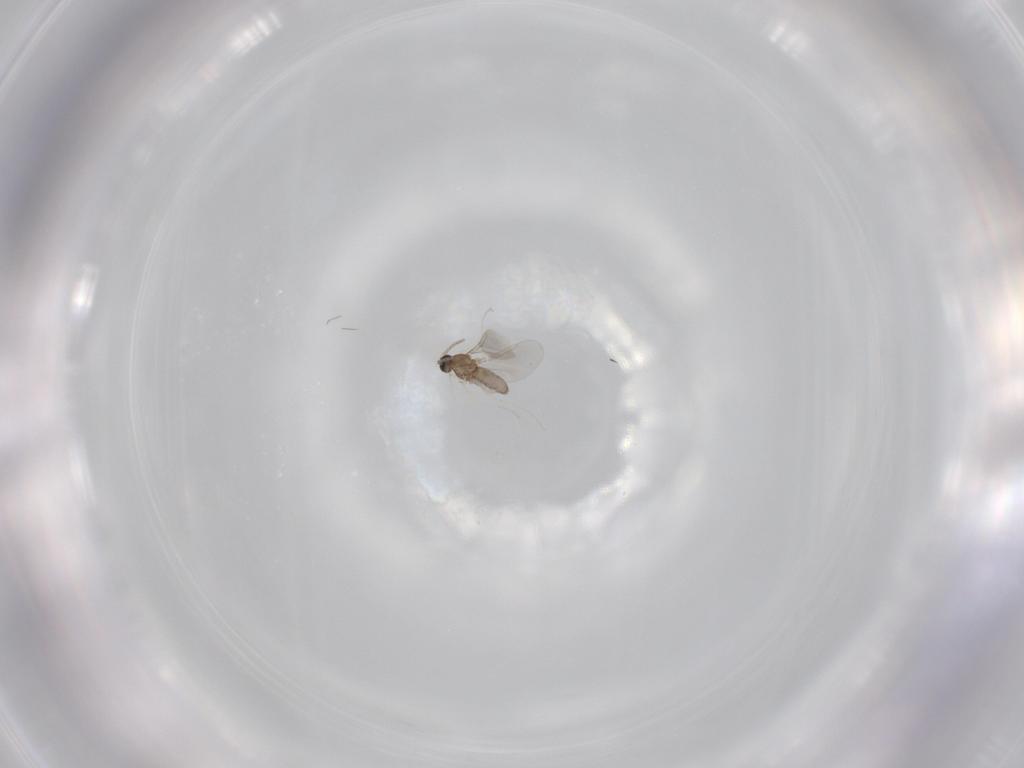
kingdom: Animalia
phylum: Arthropoda
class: Insecta
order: Diptera
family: Cecidomyiidae
